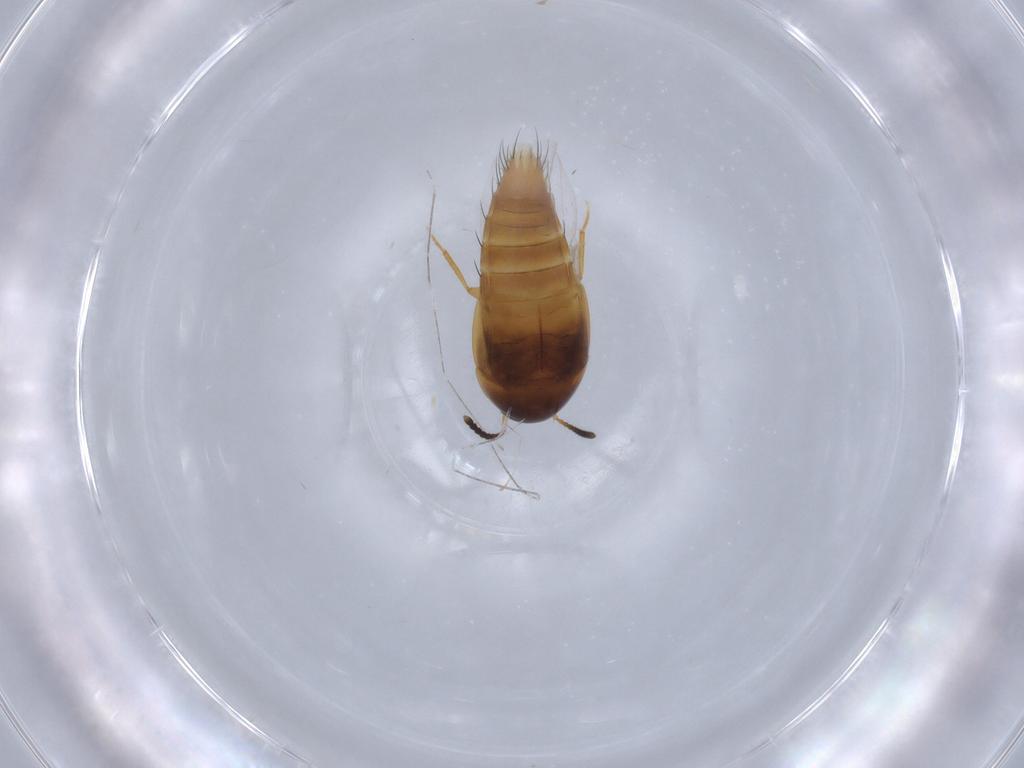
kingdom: Animalia
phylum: Arthropoda
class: Insecta
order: Coleoptera
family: Staphylinidae
